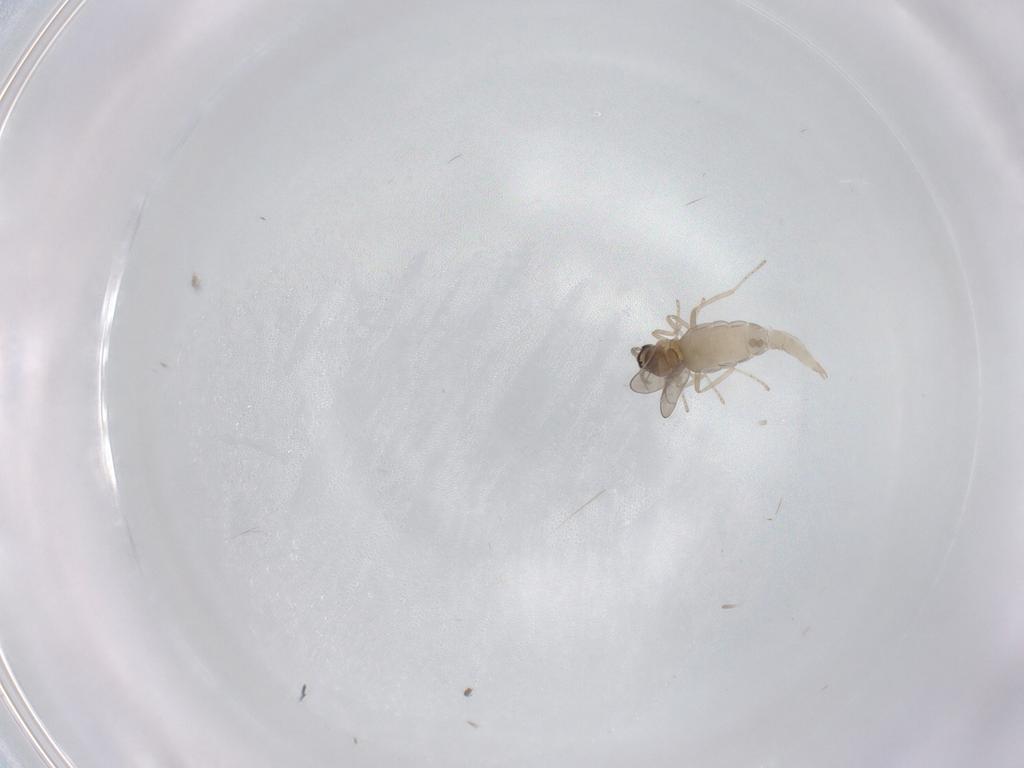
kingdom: Animalia
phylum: Arthropoda
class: Insecta
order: Diptera
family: Cecidomyiidae
